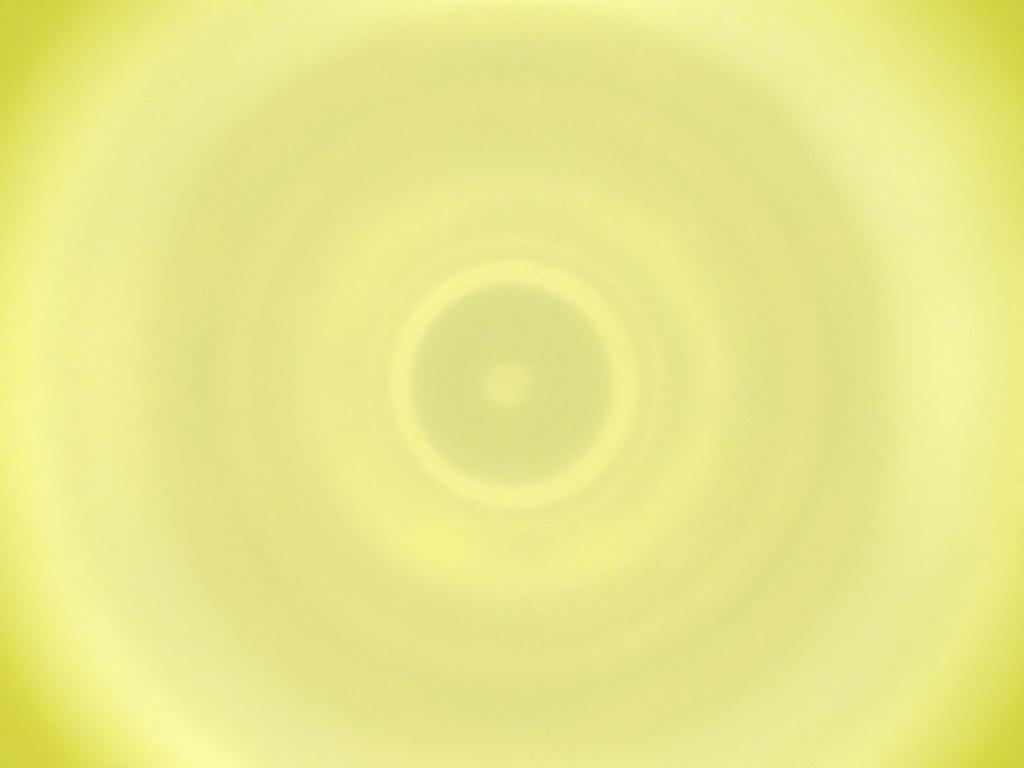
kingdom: Animalia
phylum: Arthropoda
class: Insecta
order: Diptera
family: Cecidomyiidae
